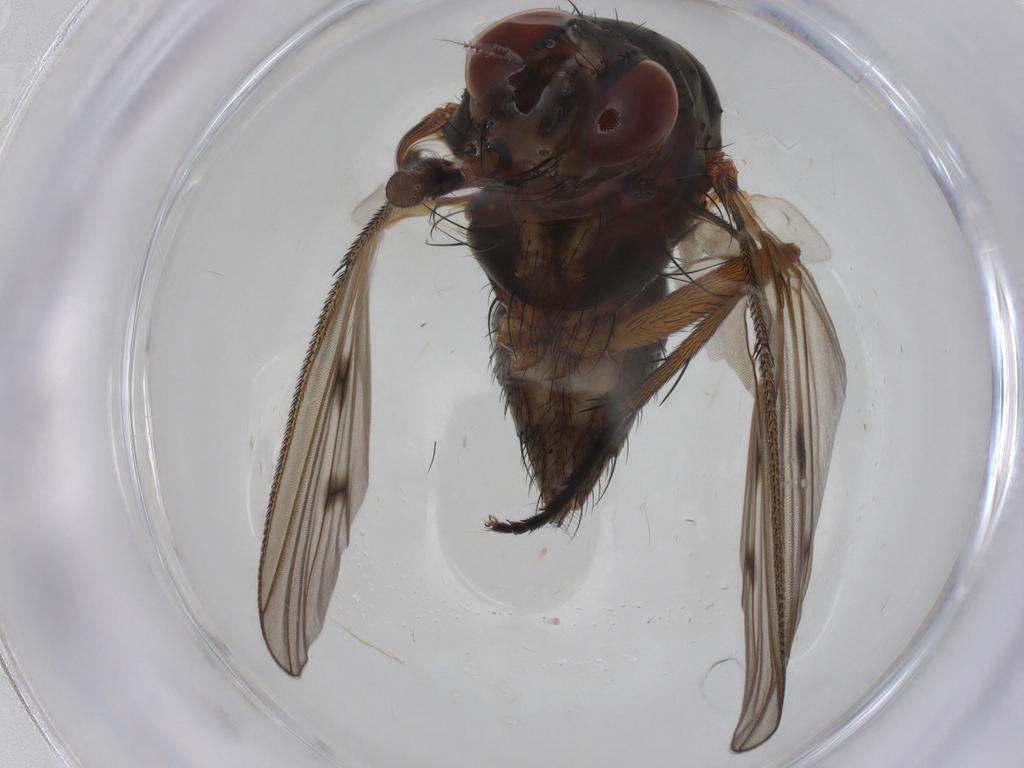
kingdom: Animalia
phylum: Arthropoda
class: Insecta
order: Diptera
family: Anthomyiidae
